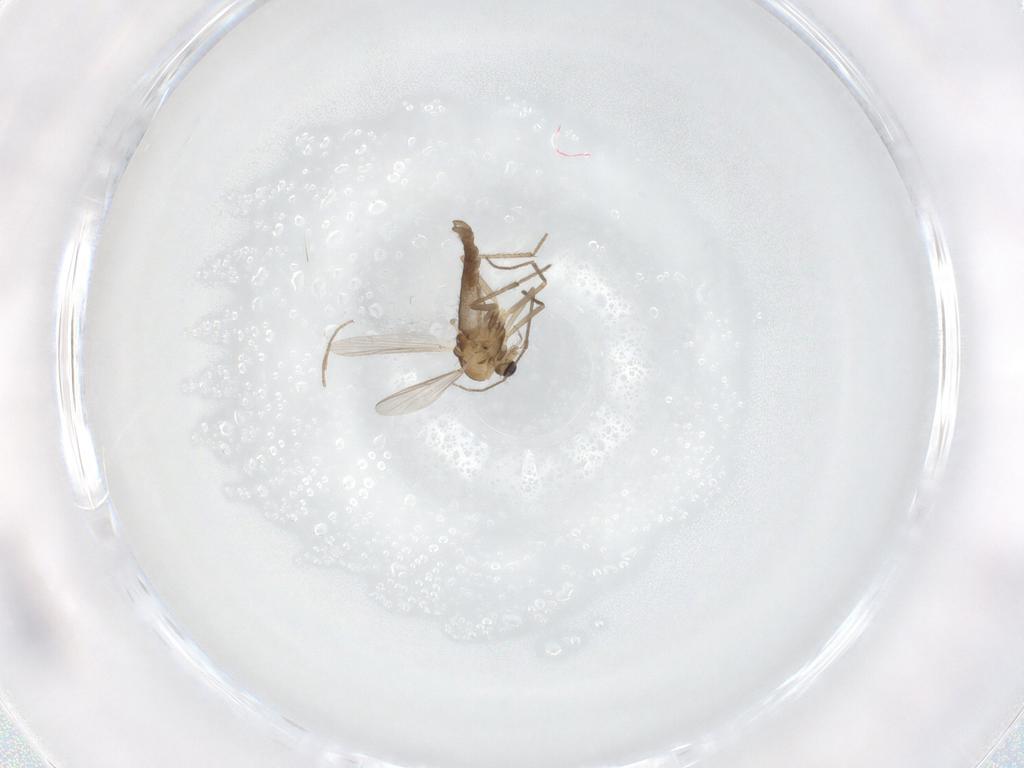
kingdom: Animalia
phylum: Arthropoda
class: Insecta
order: Diptera
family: Chironomidae
